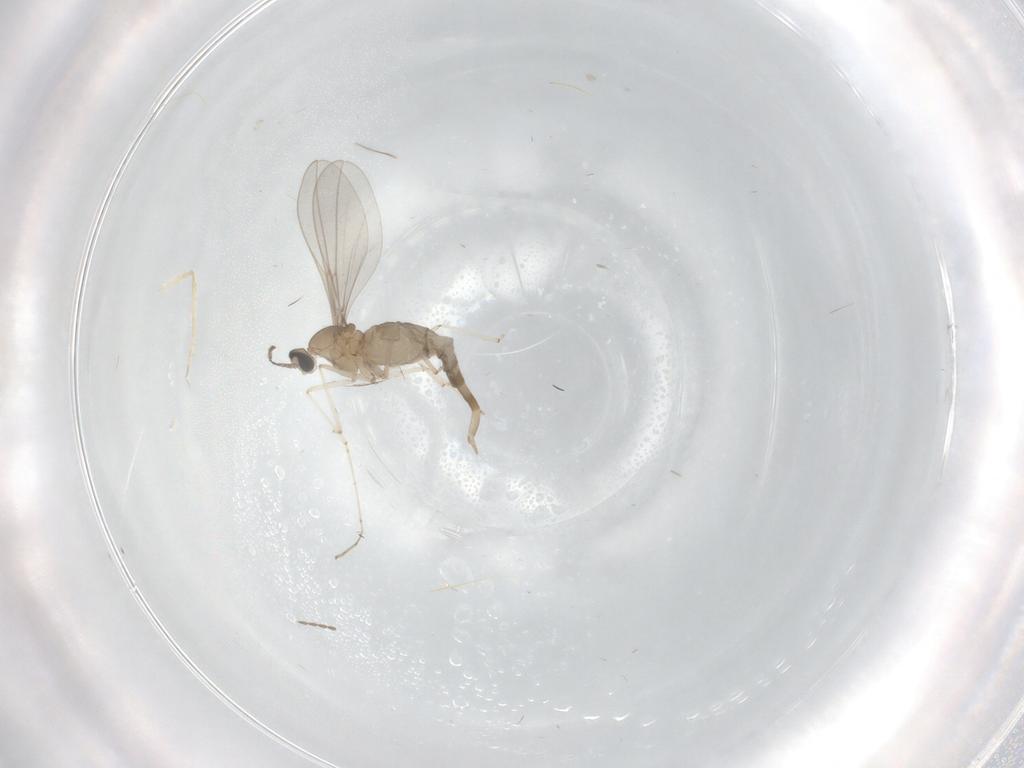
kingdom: Animalia
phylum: Arthropoda
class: Insecta
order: Diptera
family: Cecidomyiidae
